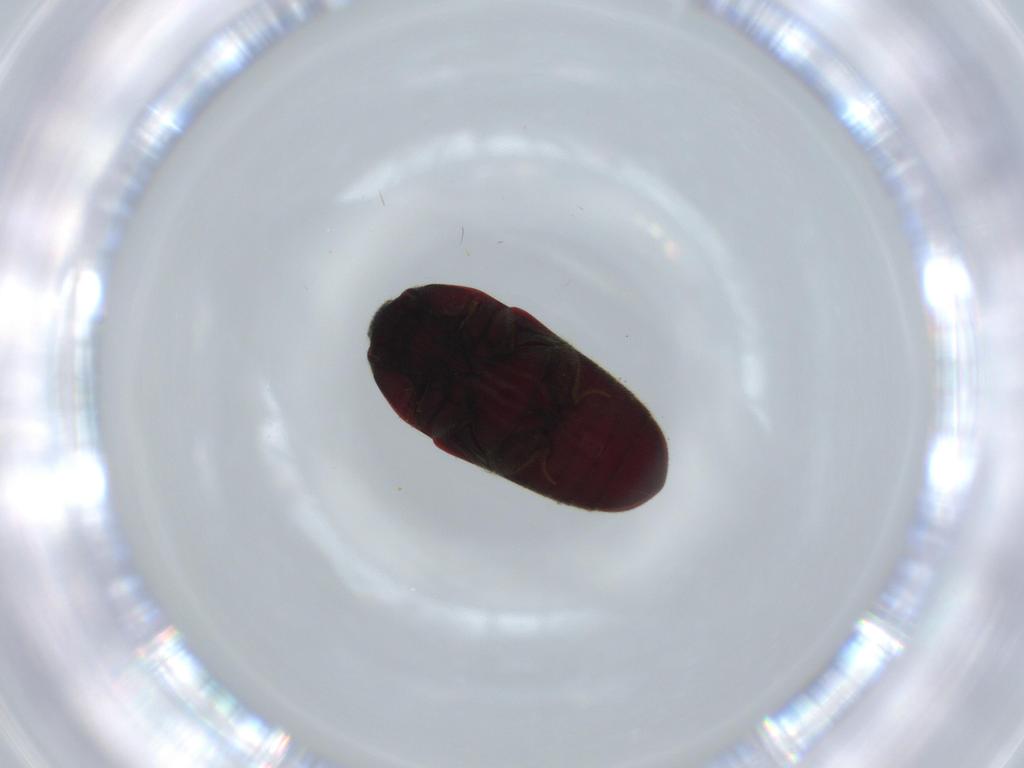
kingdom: Animalia
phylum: Arthropoda
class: Insecta
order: Coleoptera
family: Throscidae
